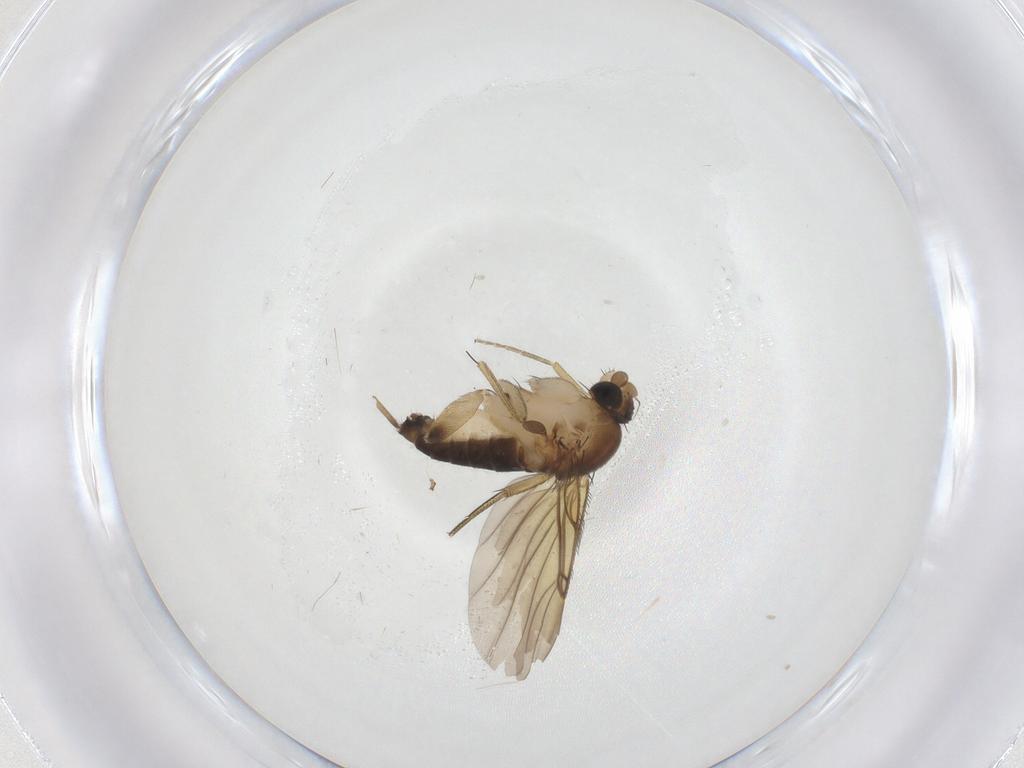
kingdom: Animalia
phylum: Arthropoda
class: Insecta
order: Diptera
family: Phoridae
